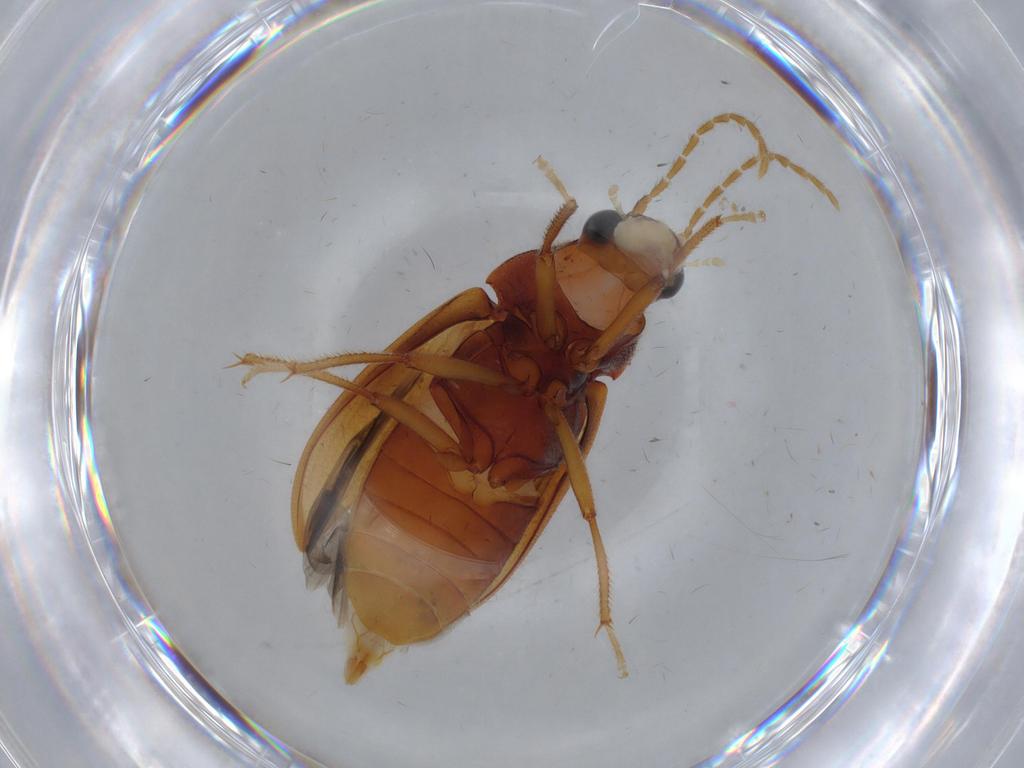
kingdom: Animalia
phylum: Arthropoda
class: Insecta
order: Coleoptera
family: Ptilodactylidae
